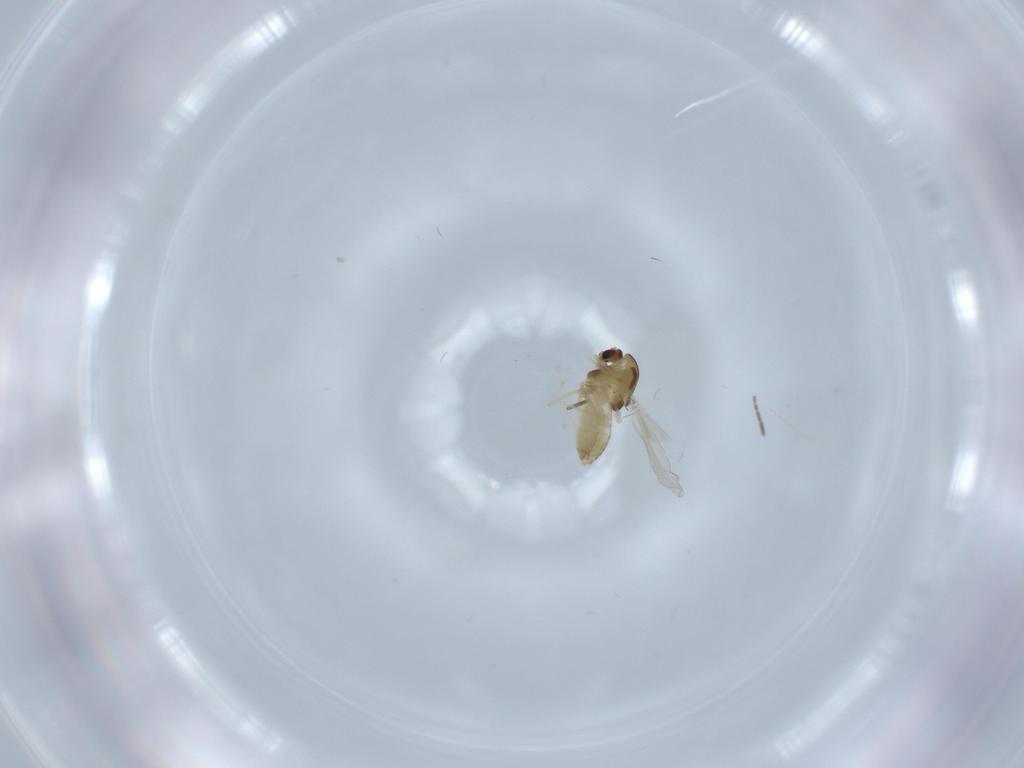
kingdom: Animalia
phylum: Arthropoda
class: Insecta
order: Diptera
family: Chironomidae
